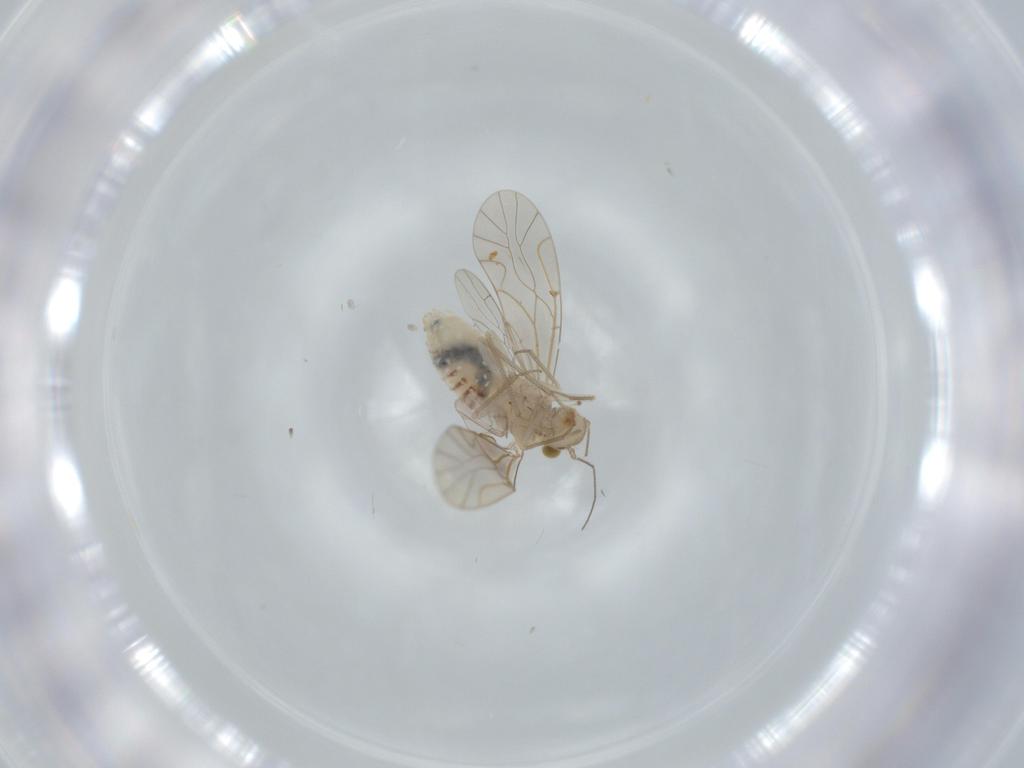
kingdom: Animalia
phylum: Arthropoda
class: Insecta
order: Psocodea
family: Lachesillidae
